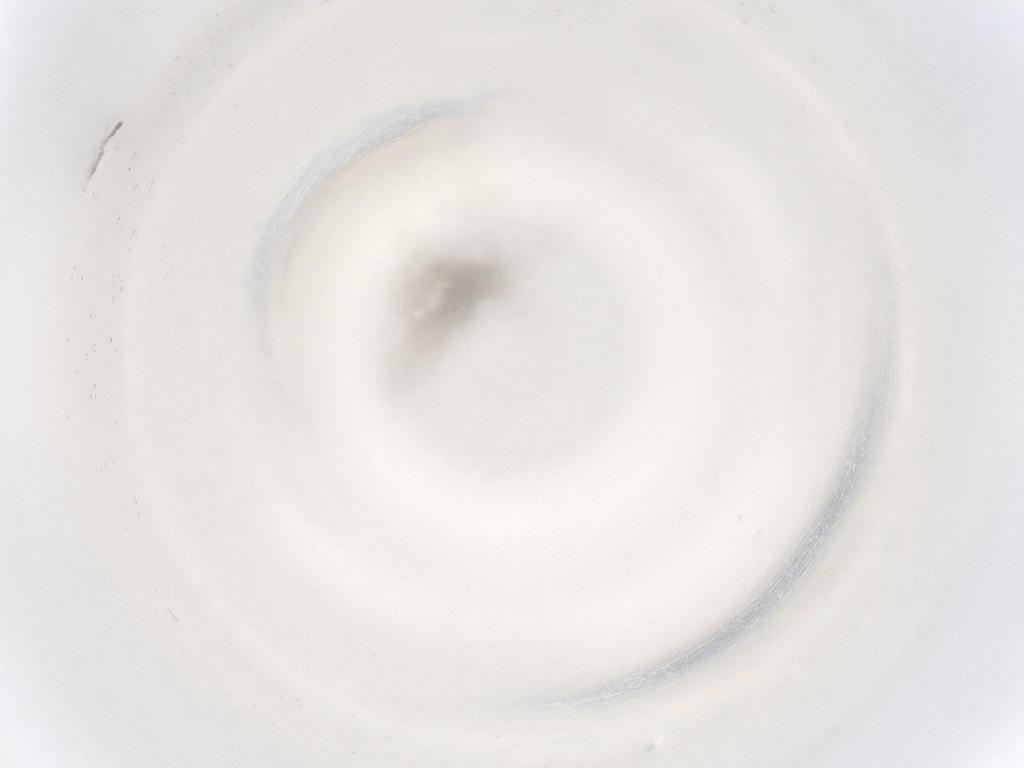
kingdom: Animalia
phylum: Arthropoda
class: Insecta
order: Diptera
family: Cecidomyiidae
